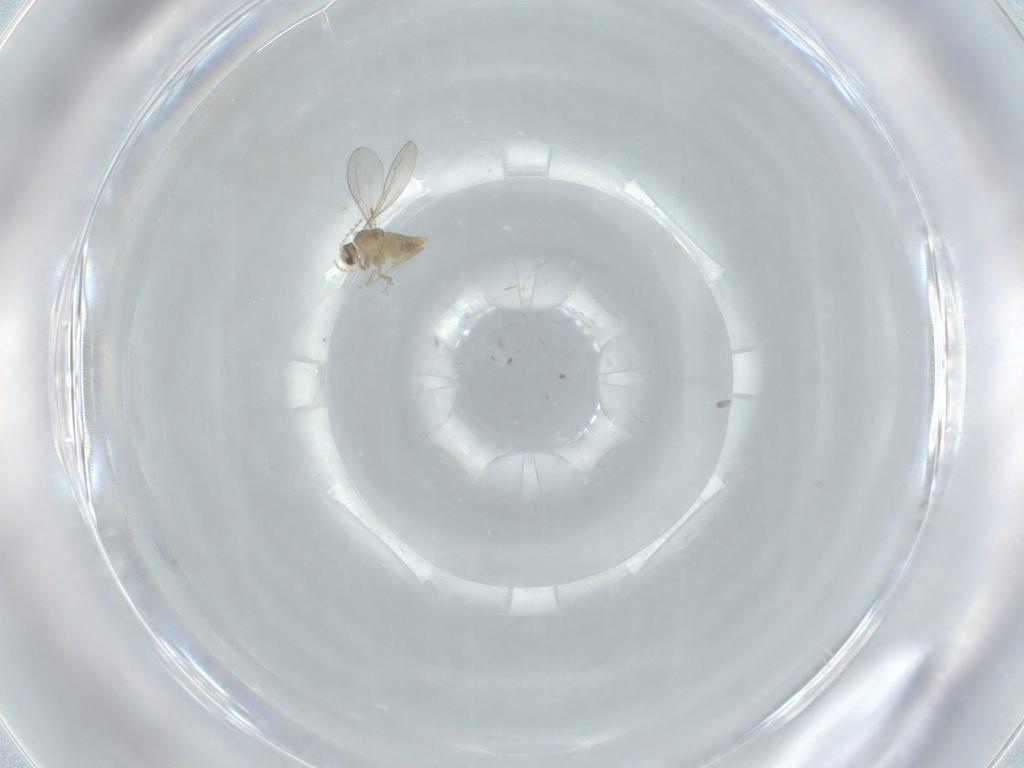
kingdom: Animalia
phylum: Arthropoda
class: Insecta
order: Diptera
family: Cecidomyiidae
